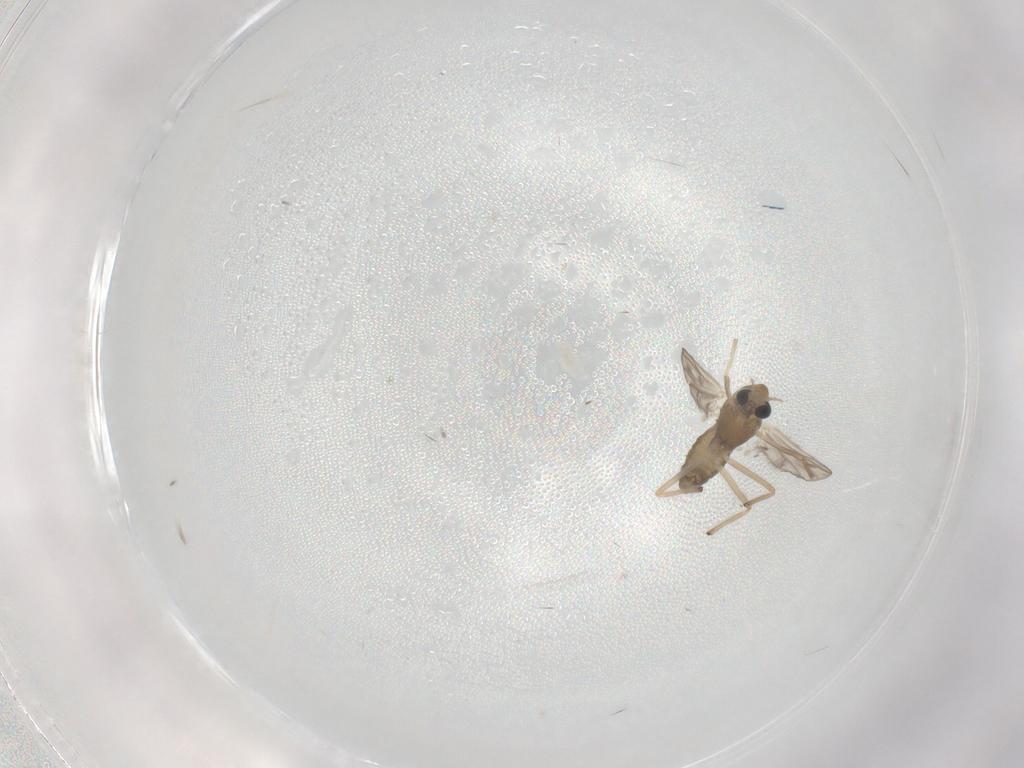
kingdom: Animalia
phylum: Arthropoda
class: Insecta
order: Diptera
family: Chironomidae
